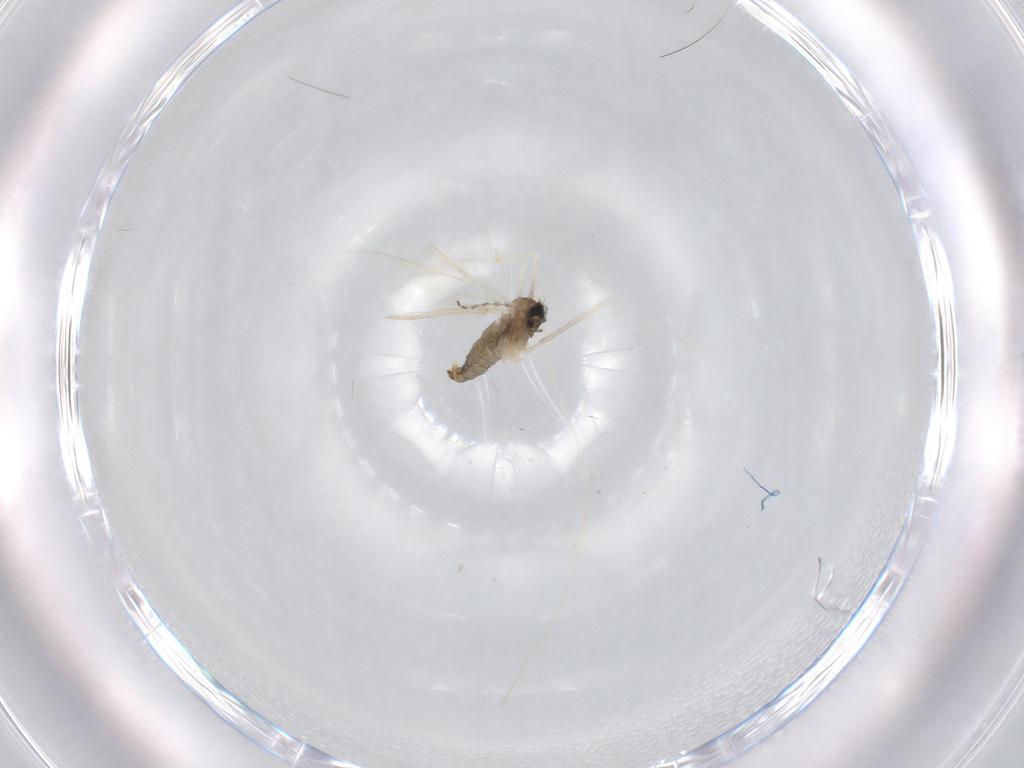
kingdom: Animalia
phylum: Arthropoda
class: Insecta
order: Diptera
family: Cecidomyiidae
